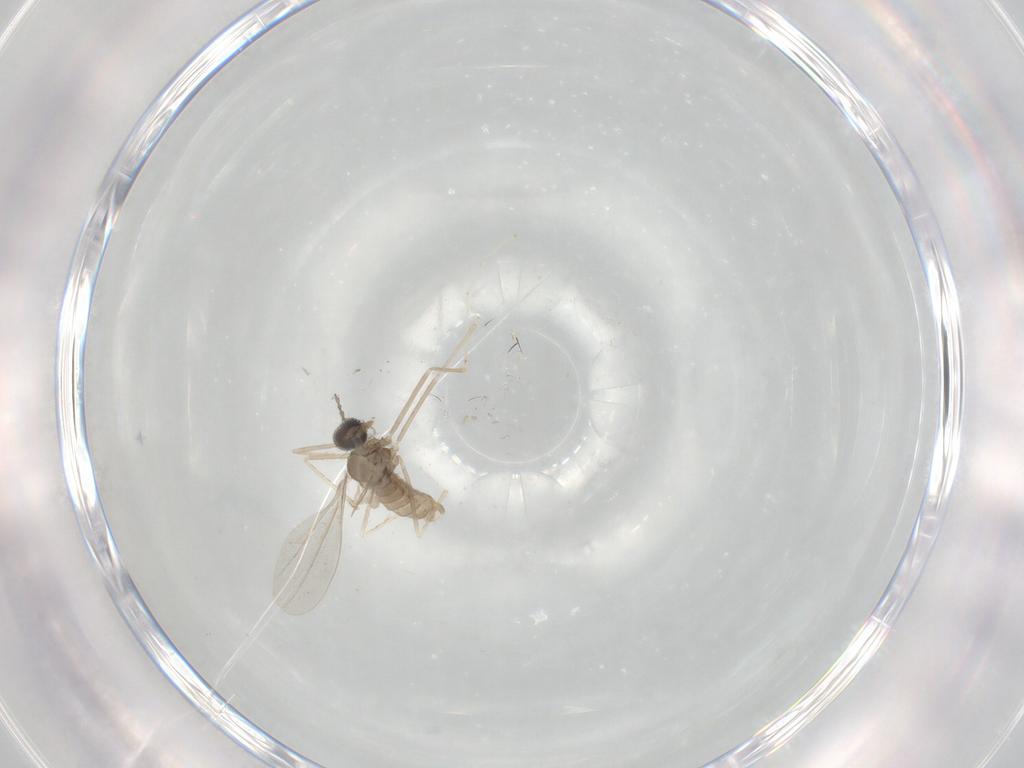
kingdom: Animalia
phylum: Arthropoda
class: Insecta
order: Diptera
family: Cecidomyiidae
